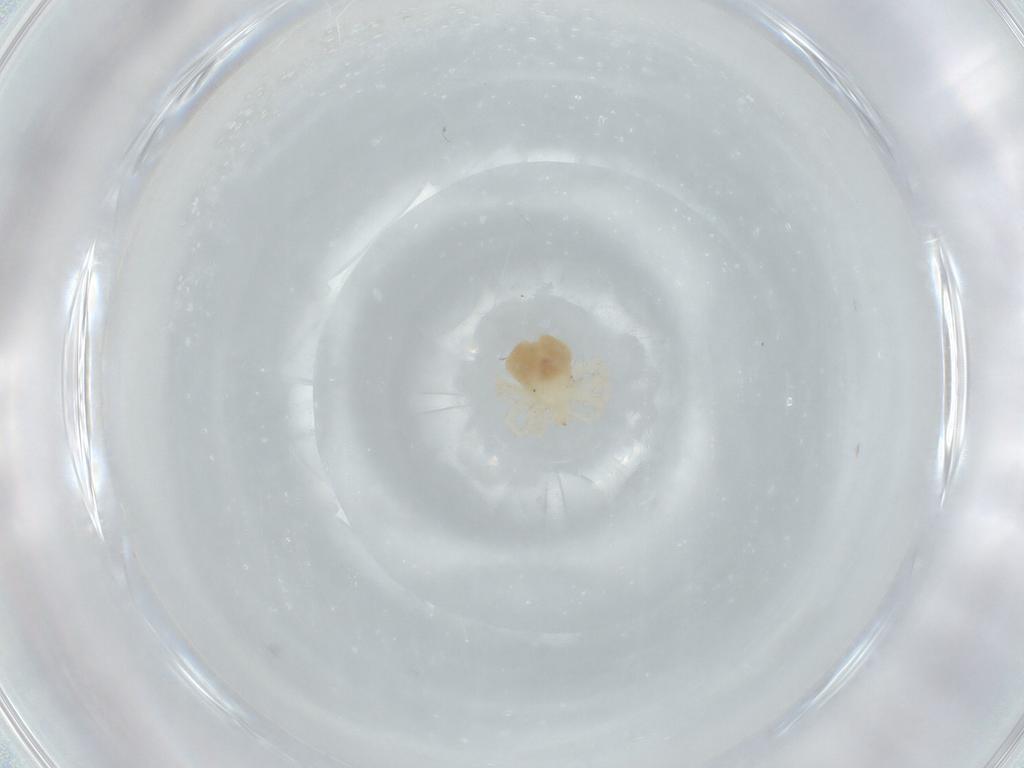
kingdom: Animalia
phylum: Arthropoda
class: Arachnida
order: Trombidiformes
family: Anystidae
